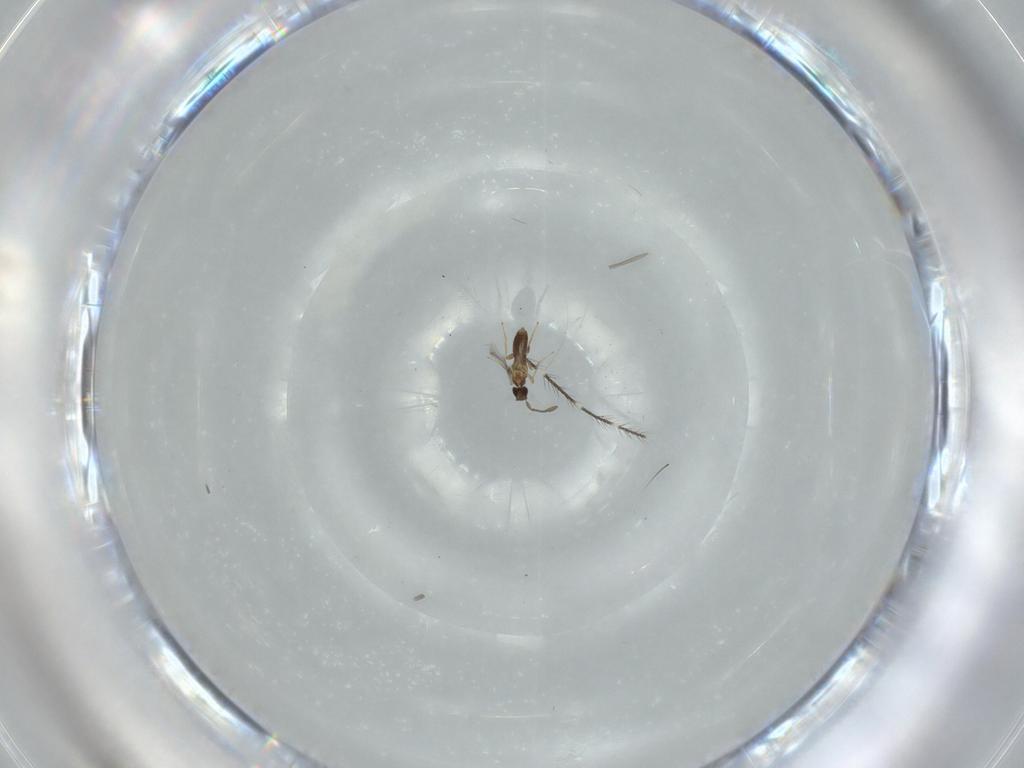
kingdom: Animalia
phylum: Arthropoda
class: Insecta
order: Hymenoptera
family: Mymaridae
